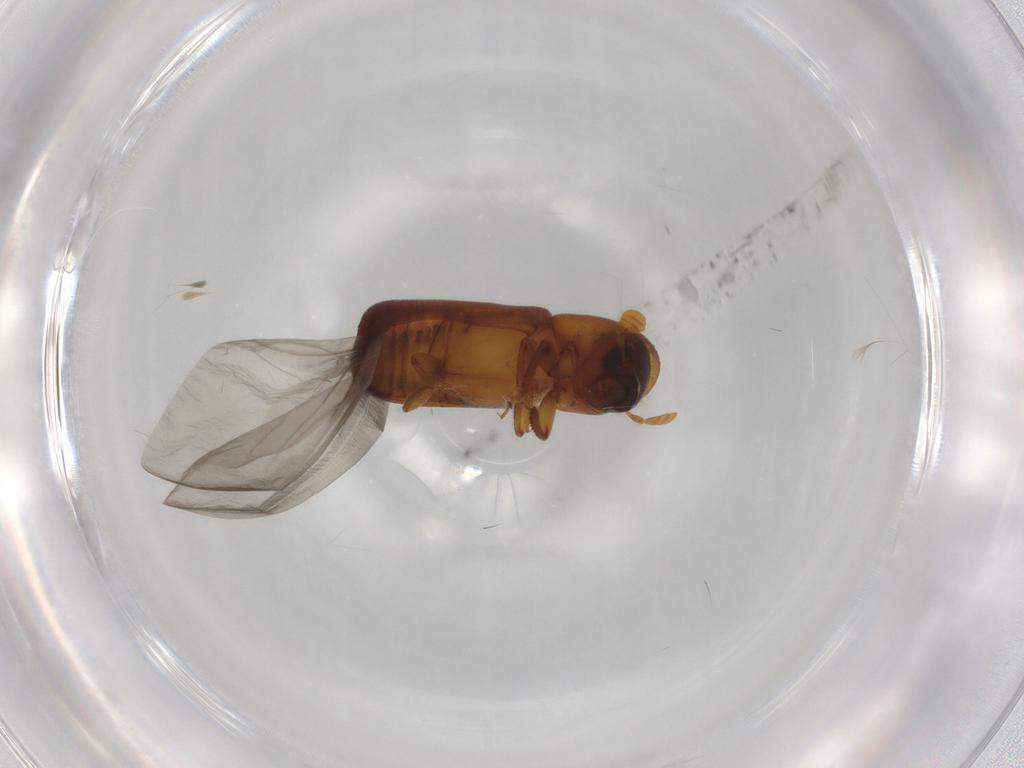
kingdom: Animalia
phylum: Arthropoda
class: Insecta
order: Coleoptera
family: Curculionidae
